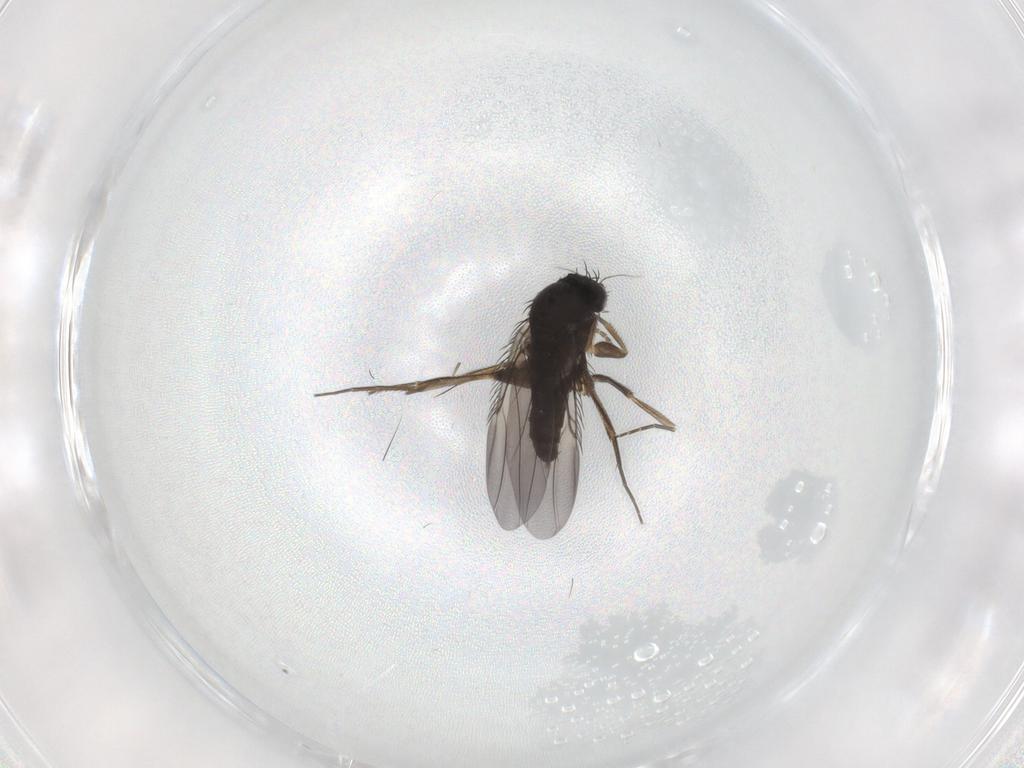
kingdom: Animalia
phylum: Arthropoda
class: Insecta
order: Diptera
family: Phoridae
